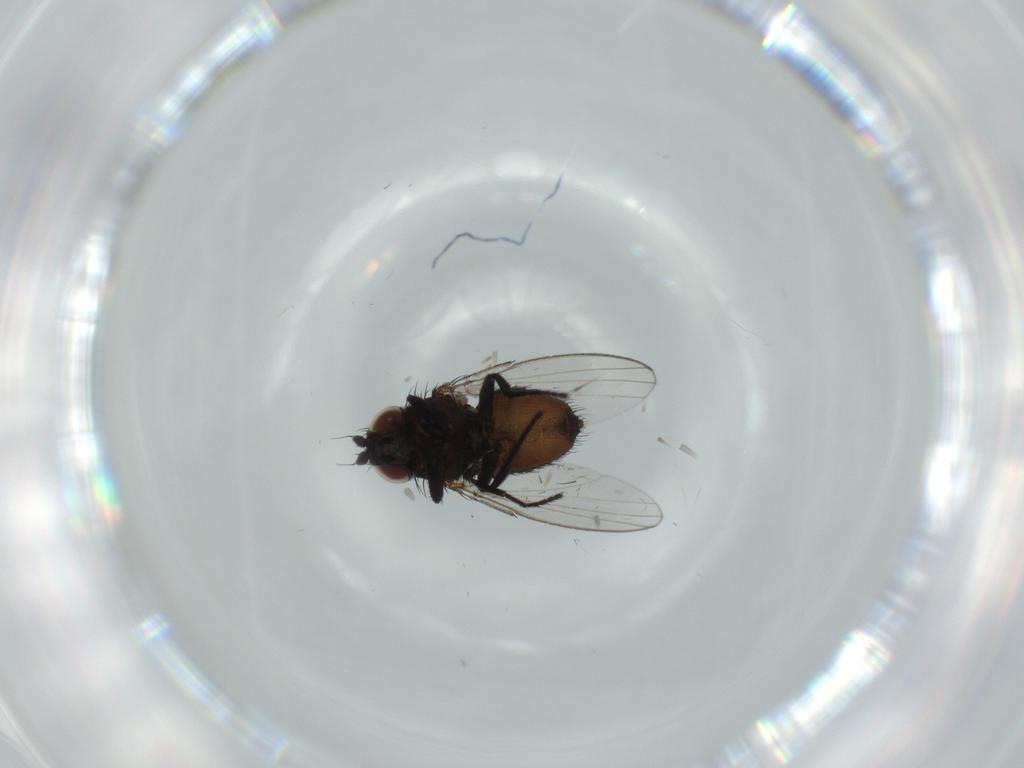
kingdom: Animalia
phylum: Arthropoda
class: Insecta
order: Diptera
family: Milichiidae
